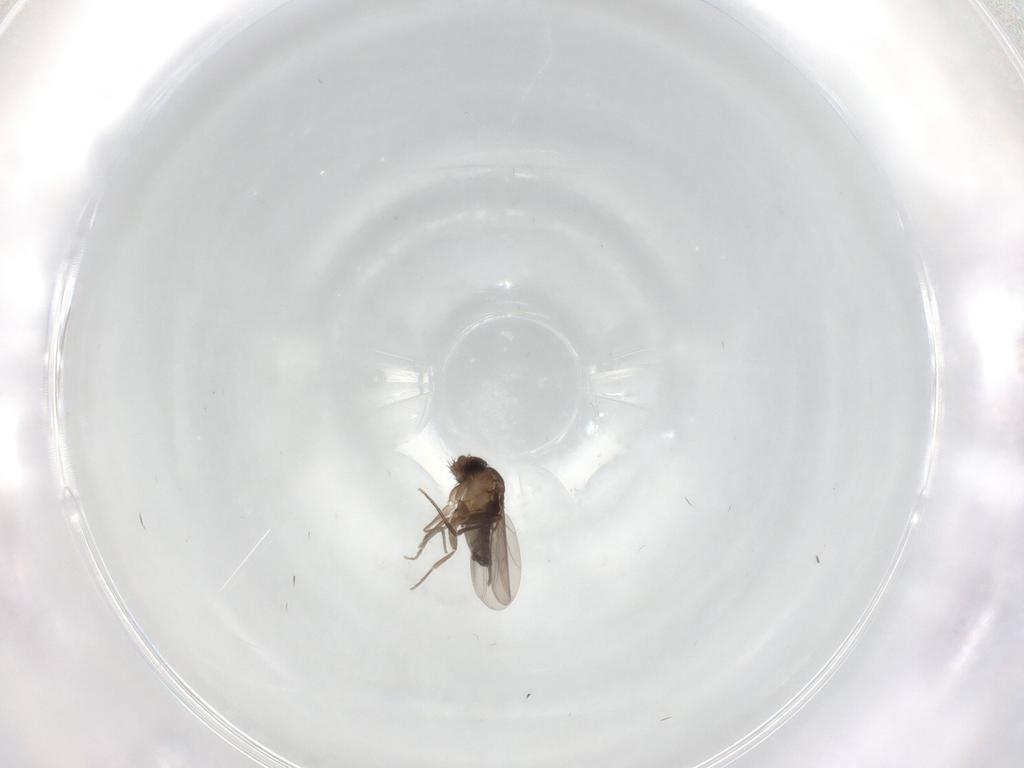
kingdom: Animalia
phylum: Arthropoda
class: Insecta
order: Diptera
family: Phoridae
